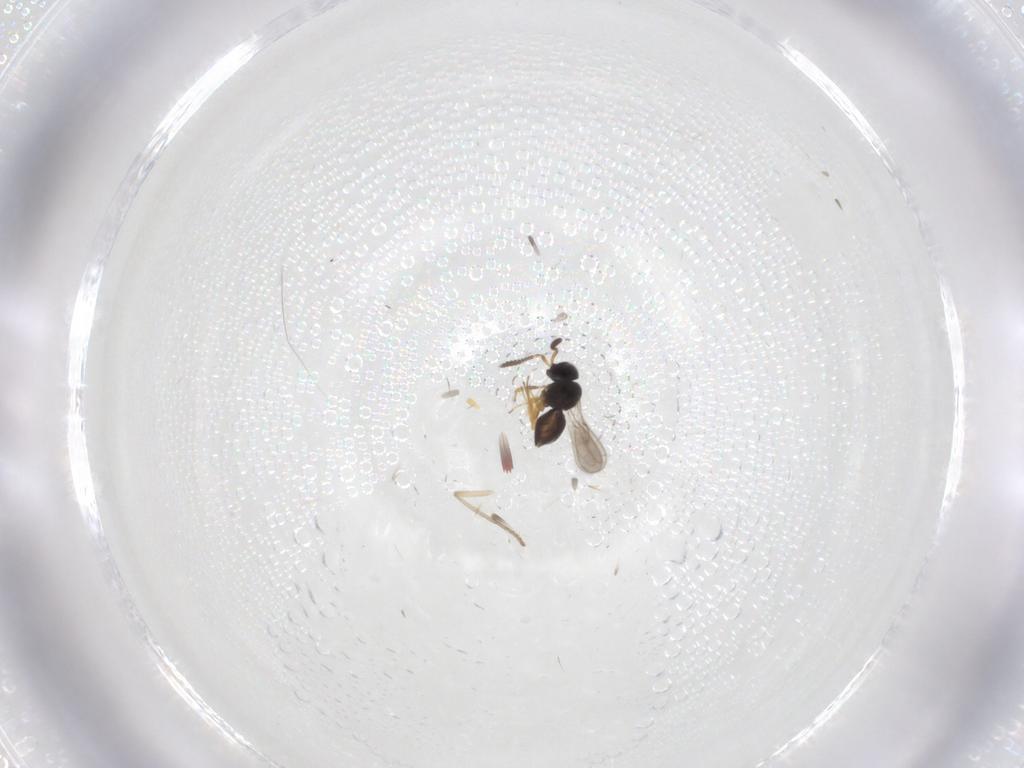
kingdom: Animalia
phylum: Arthropoda
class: Insecta
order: Hymenoptera
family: Scelionidae
